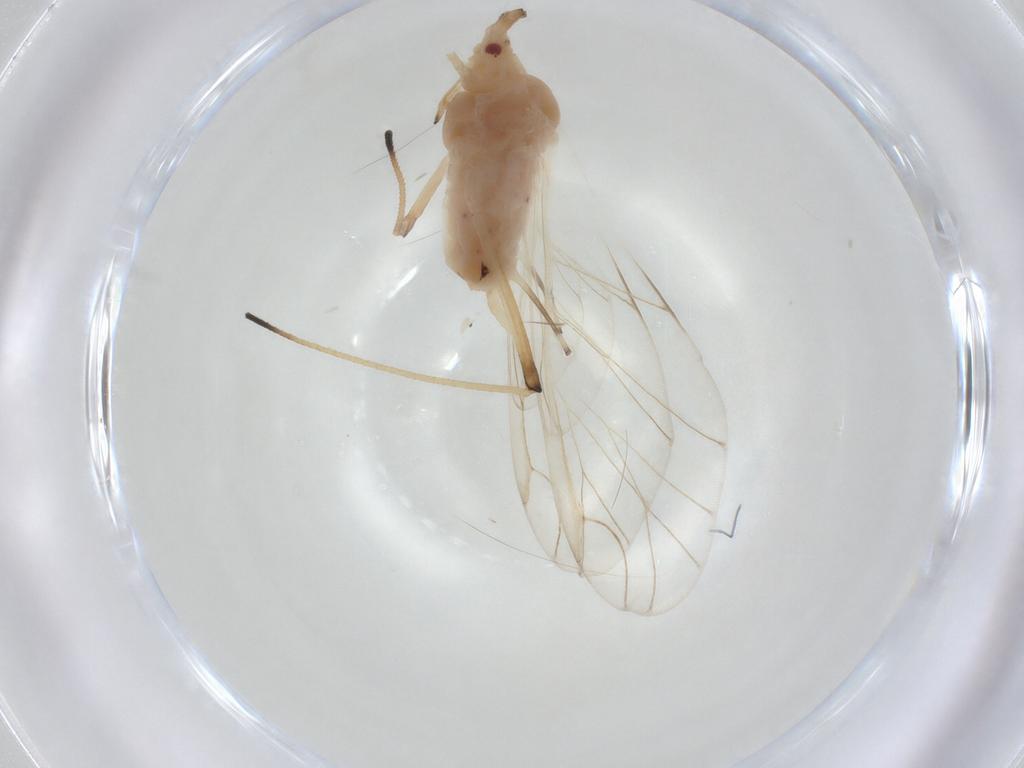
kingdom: Animalia
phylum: Arthropoda
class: Insecta
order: Hemiptera
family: Aphididae
